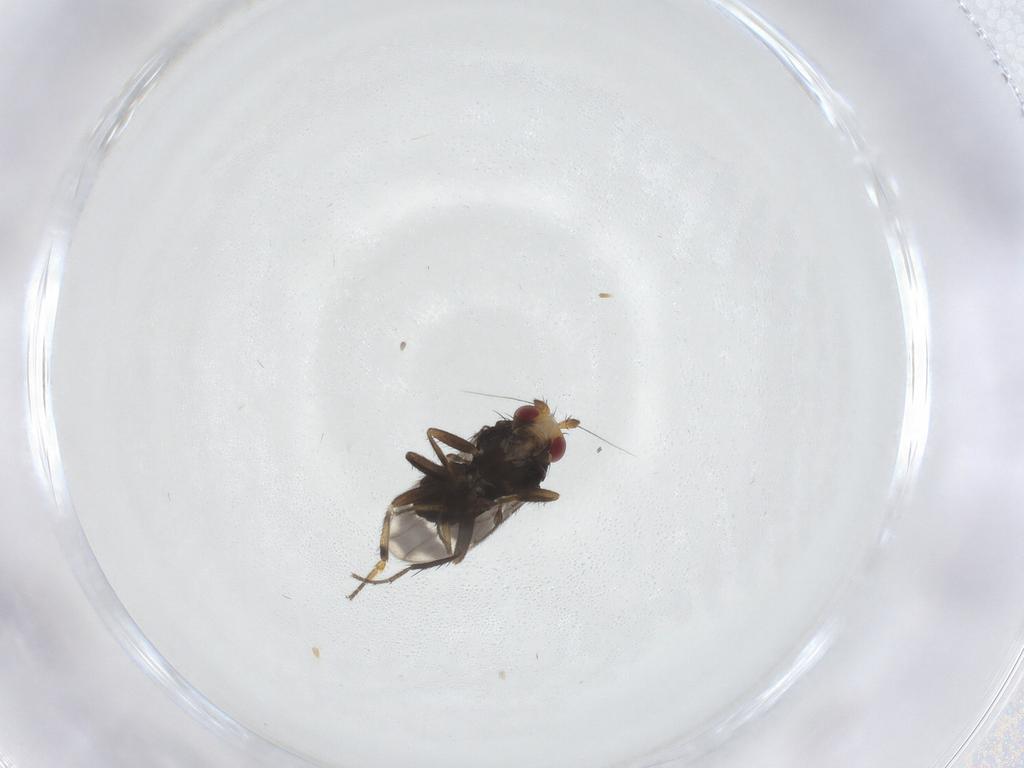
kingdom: Animalia
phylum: Arthropoda
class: Insecta
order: Diptera
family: Sphaeroceridae
